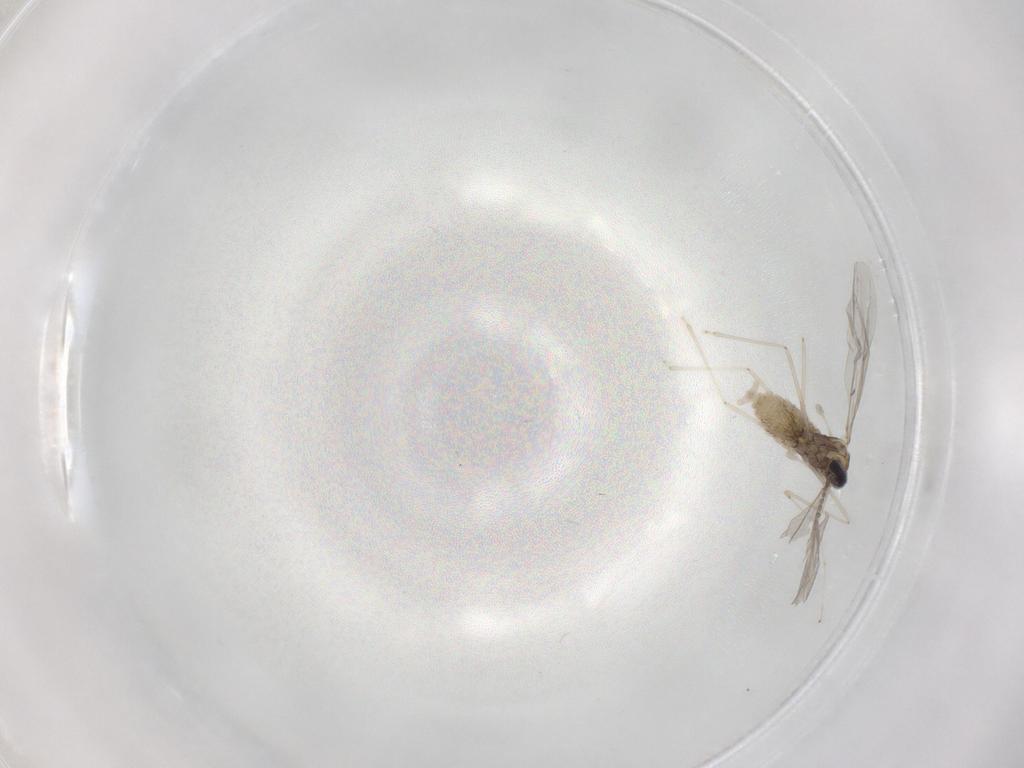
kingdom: Animalia
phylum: Arthropoda
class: Insecta
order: Diptera
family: Cecidomyiidae
